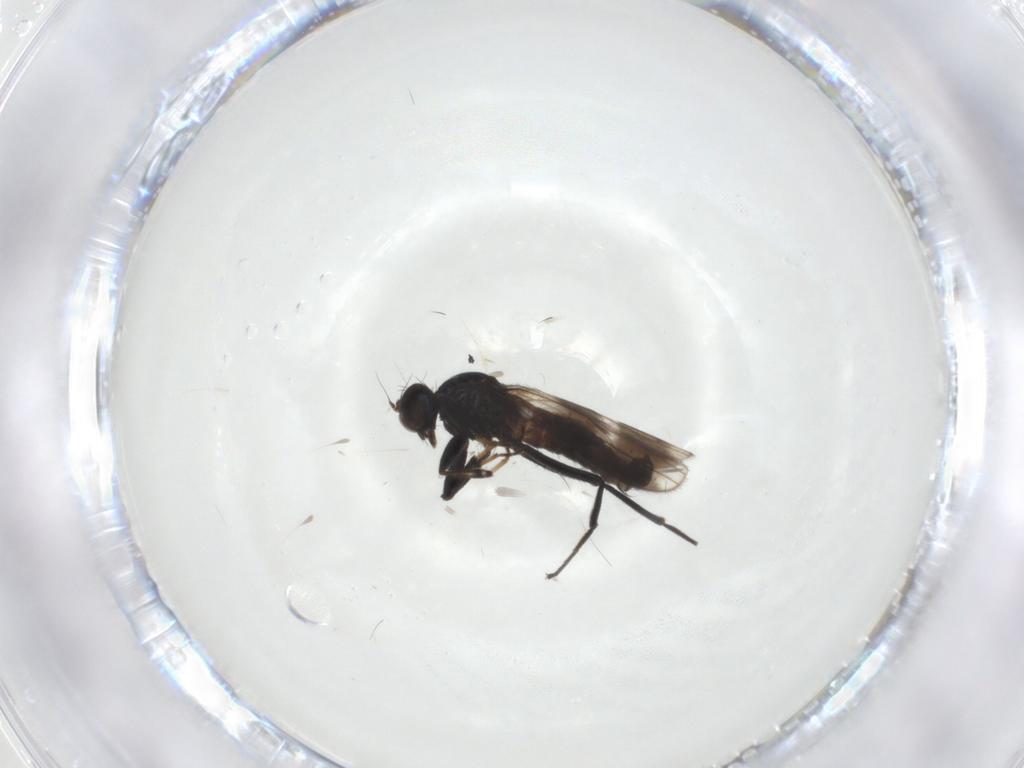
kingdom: Animalia
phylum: Arthropoda
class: Insecta
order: Diptera
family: Hybotidae
